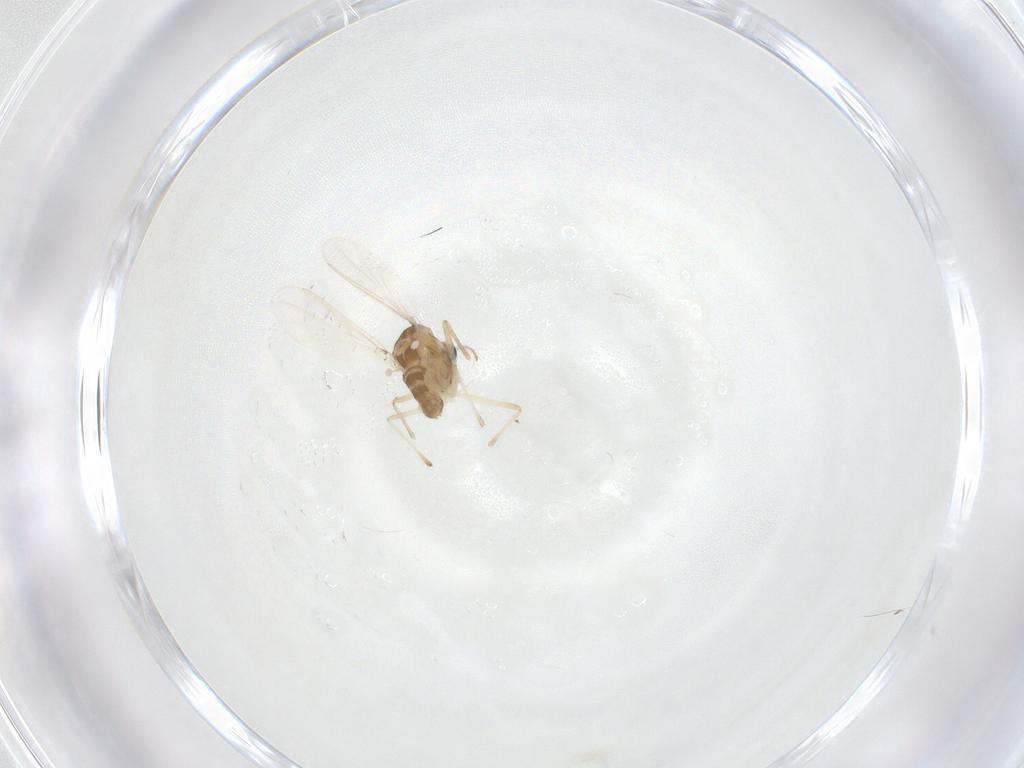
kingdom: Animalia
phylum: Arthropoda
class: Insecta
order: Diptera
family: Chironomidae
